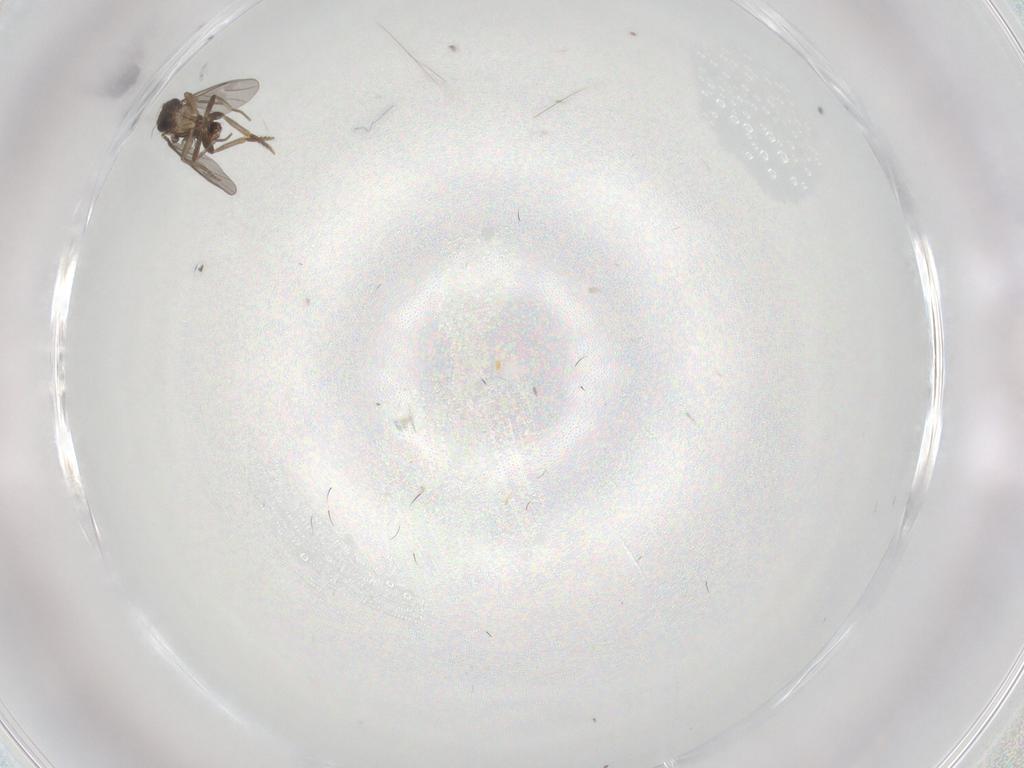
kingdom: Animalia
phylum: Arthropoda
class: Insecta
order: Diptera
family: Tabanidae
